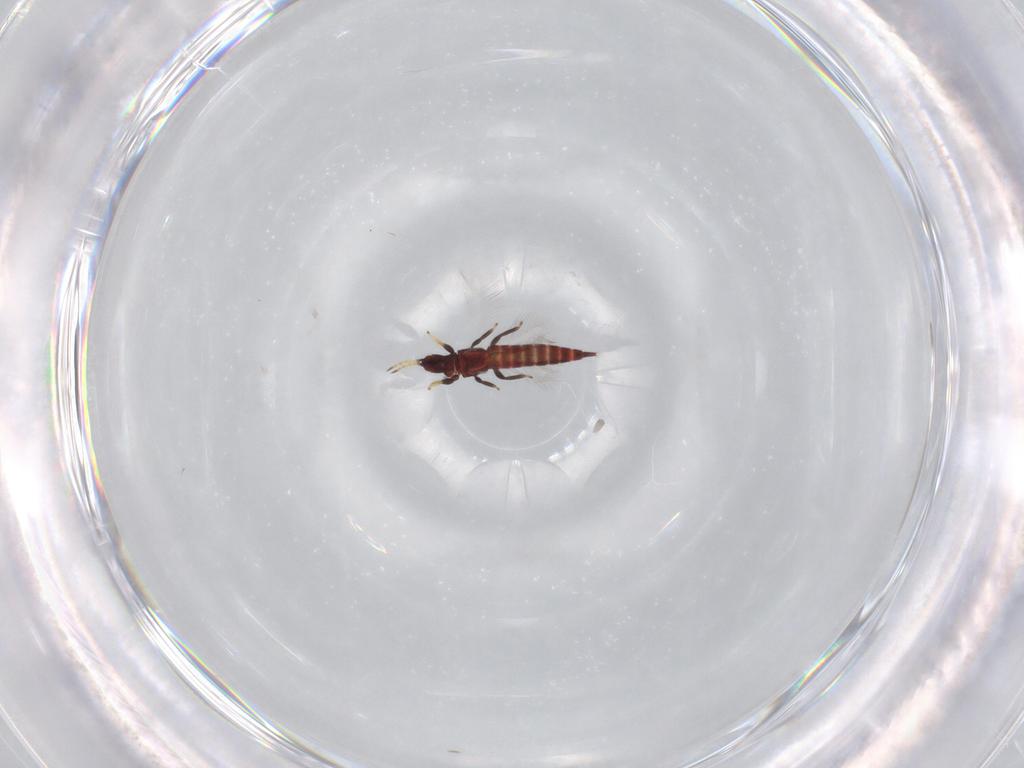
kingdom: Animalia
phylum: Arthropoda
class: Insecta
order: Thysanoptera
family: Phlaeothripidae
